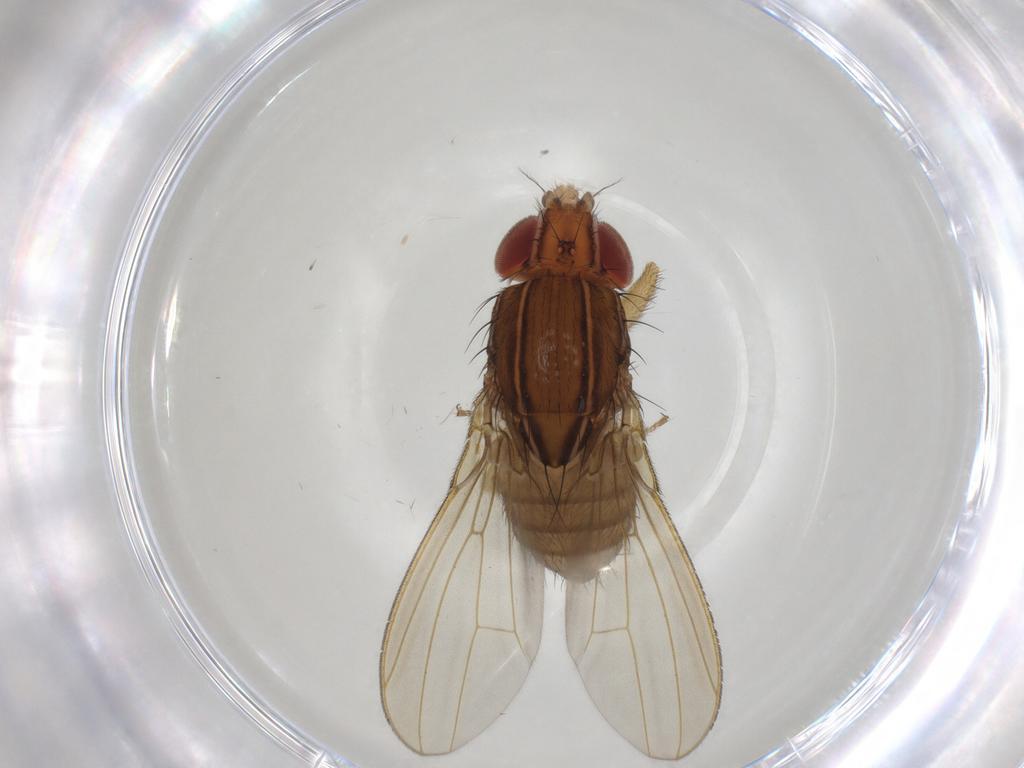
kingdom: Animalia
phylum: Arthropoda
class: Insecta
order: Diptera
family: Drosophilidae
